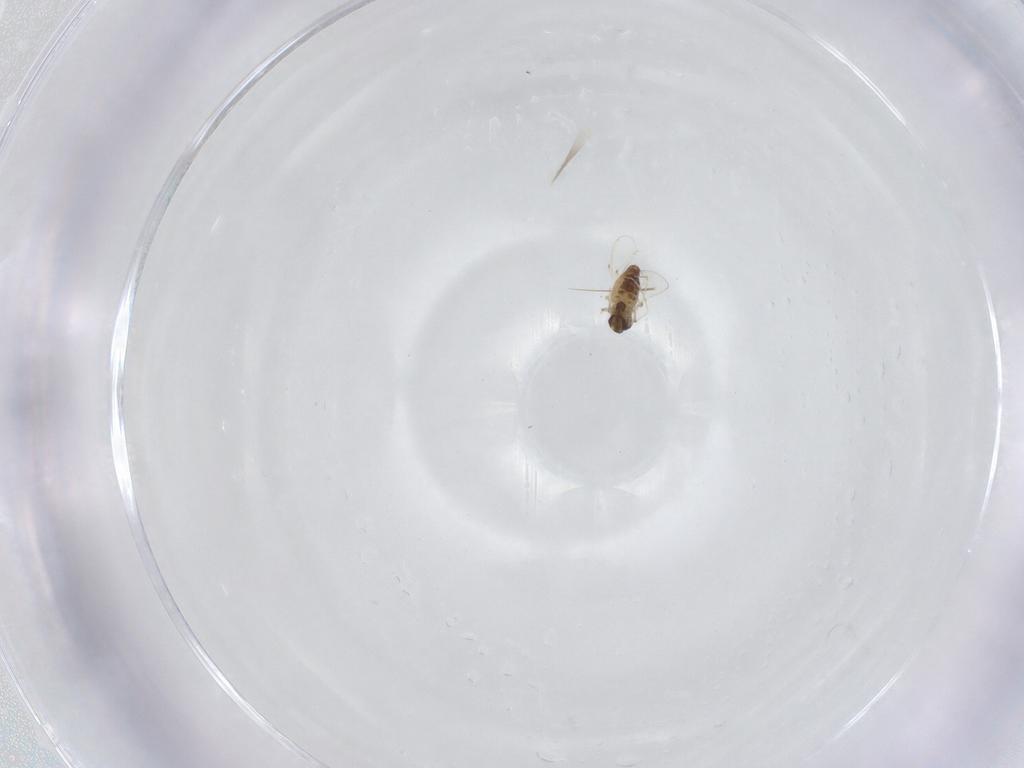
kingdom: Animalia
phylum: Arthropoda
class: Insecta
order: Diptera
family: Chironomidae
